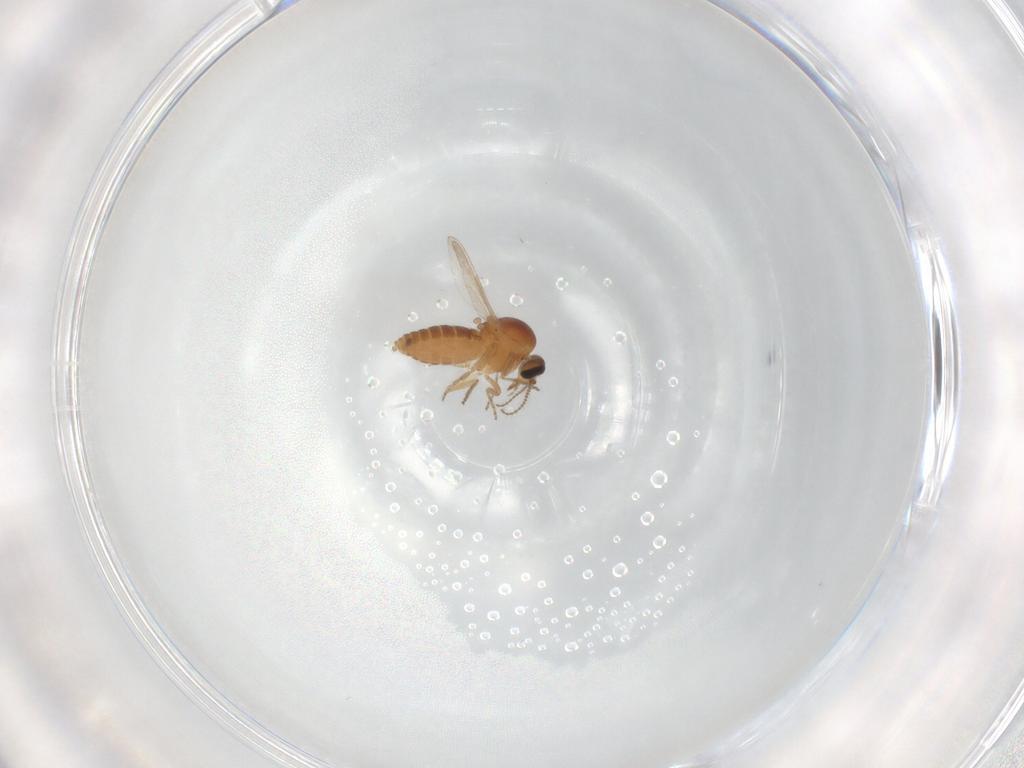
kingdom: Animalia
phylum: Arthropoda
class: Insecta
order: Diptera
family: Ceratopogonidae
